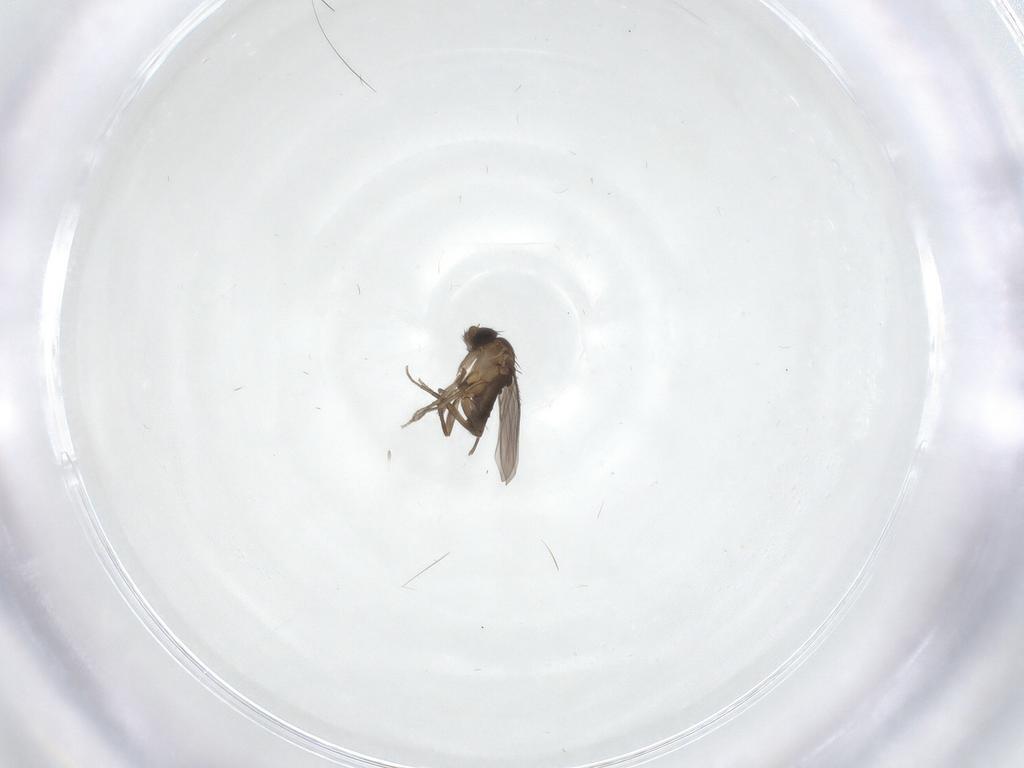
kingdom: Animalia
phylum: Arthropoda
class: Insecta
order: Diptera
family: Phoridae
